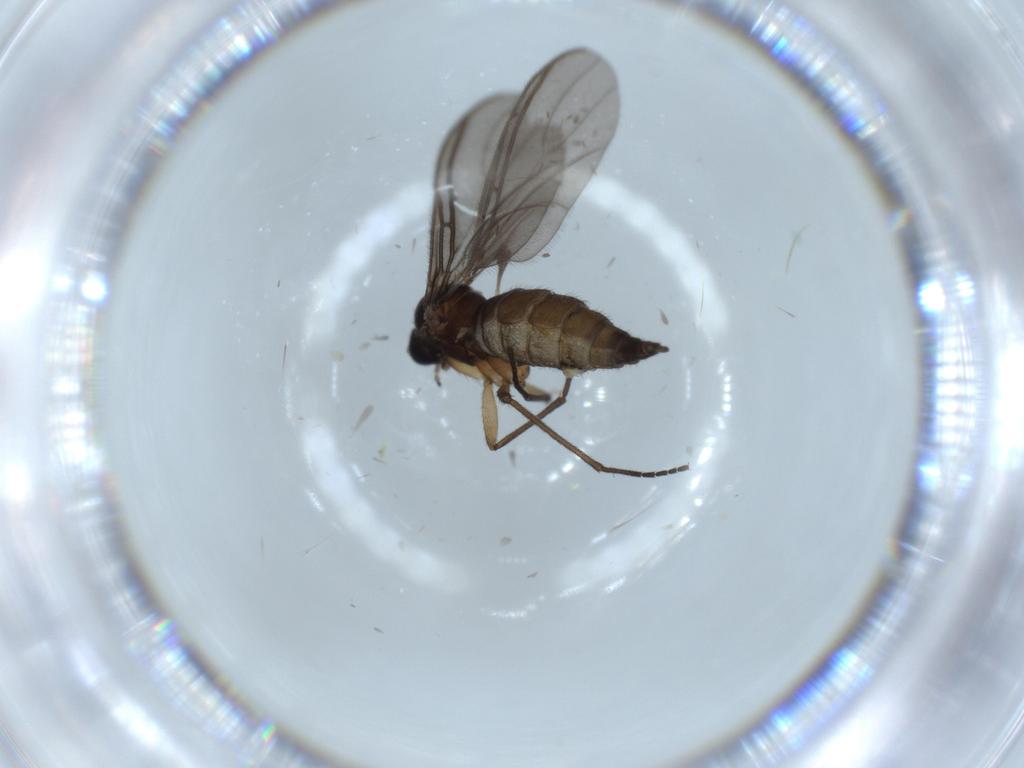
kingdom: Animalia
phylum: Arthropoda
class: Insecta
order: Diptera
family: Sciaridae
